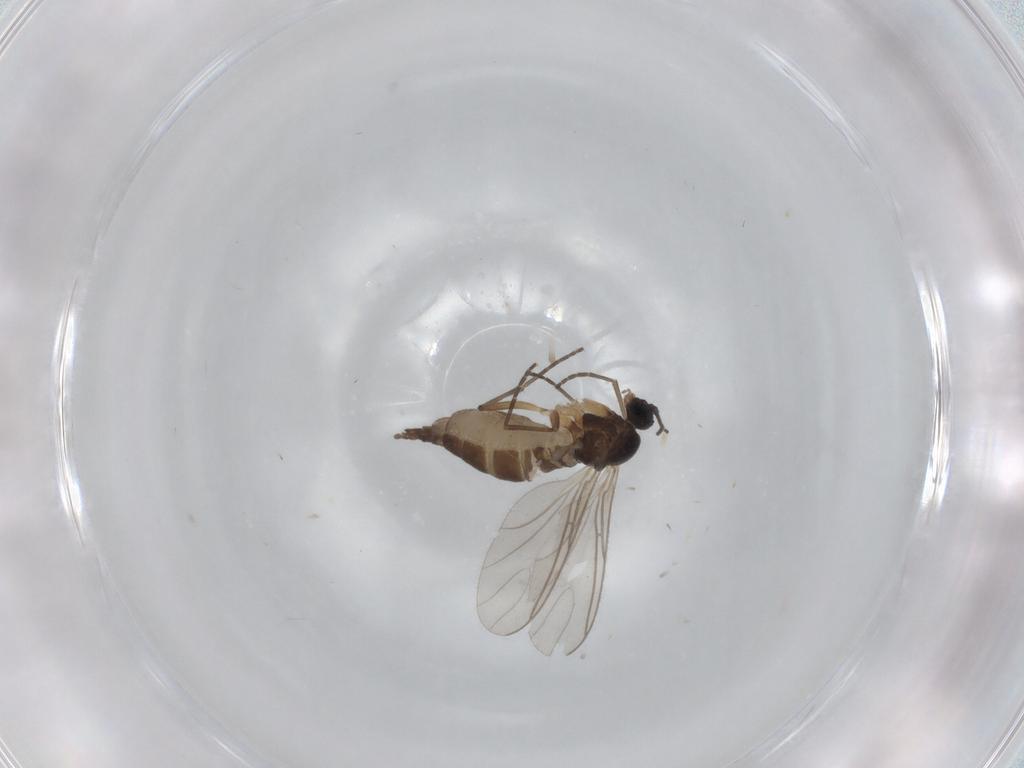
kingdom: Animalia
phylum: Arthropoda
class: Insecta
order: Diptera
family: Sciaridae
